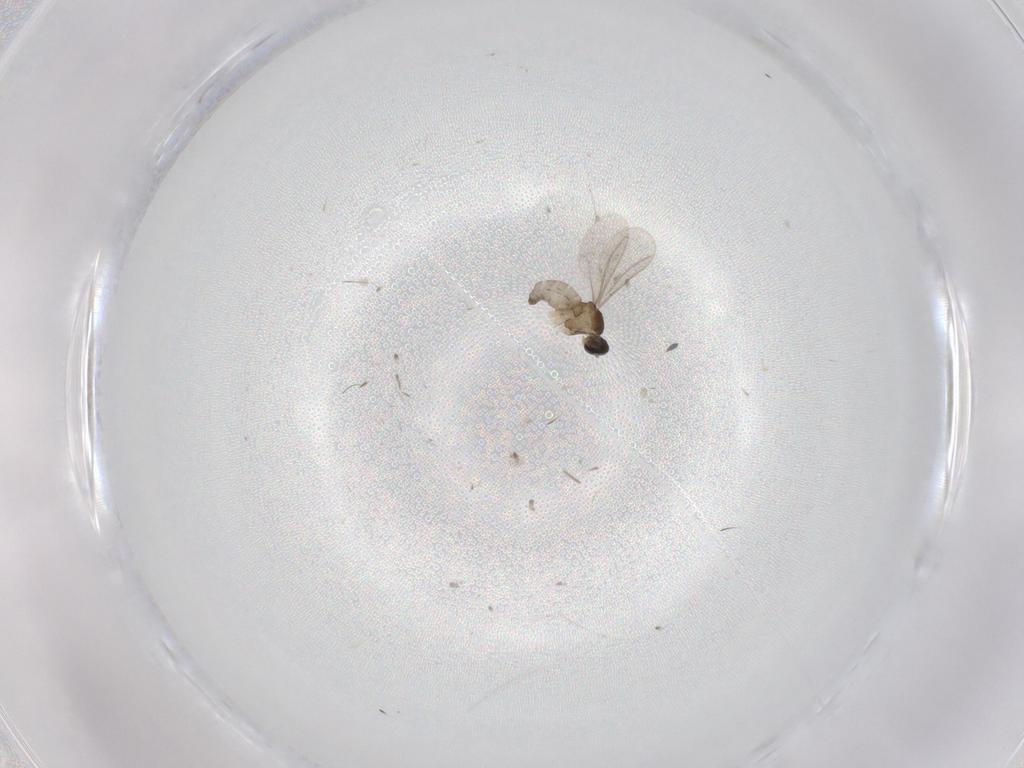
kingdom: Animalia
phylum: Arthropoda
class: Insecta
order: Diptera
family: Cecidomyiidae
